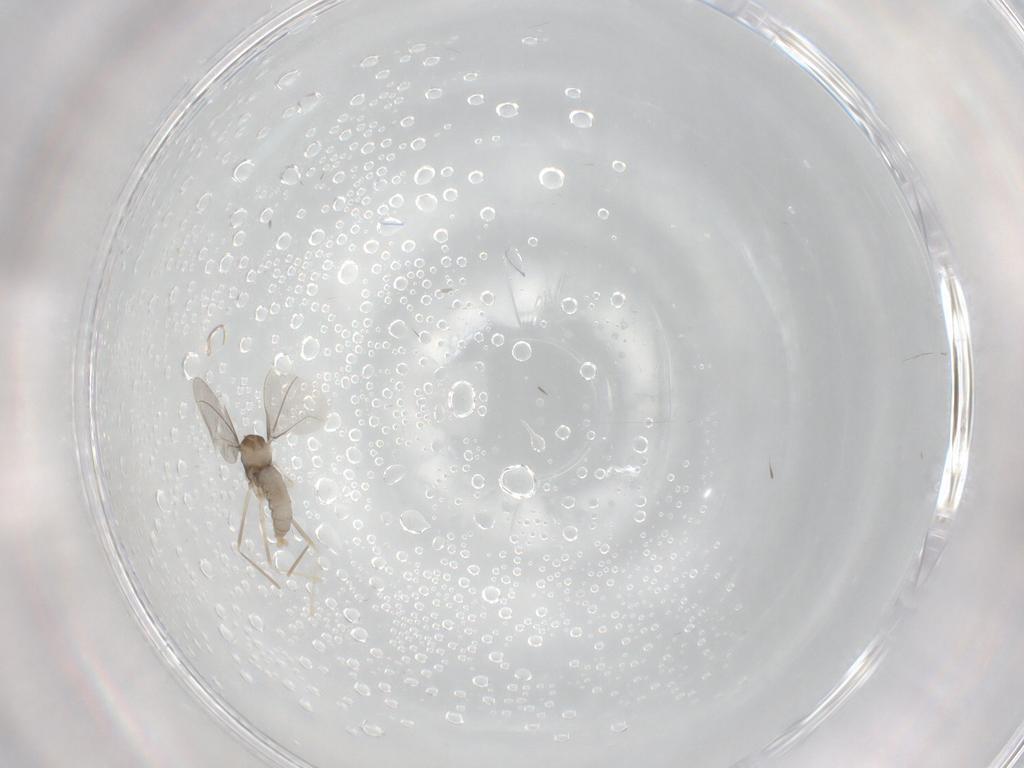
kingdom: Animalia
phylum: Arthropoda
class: Insecta
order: Diptera
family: Cecidomyiidae
